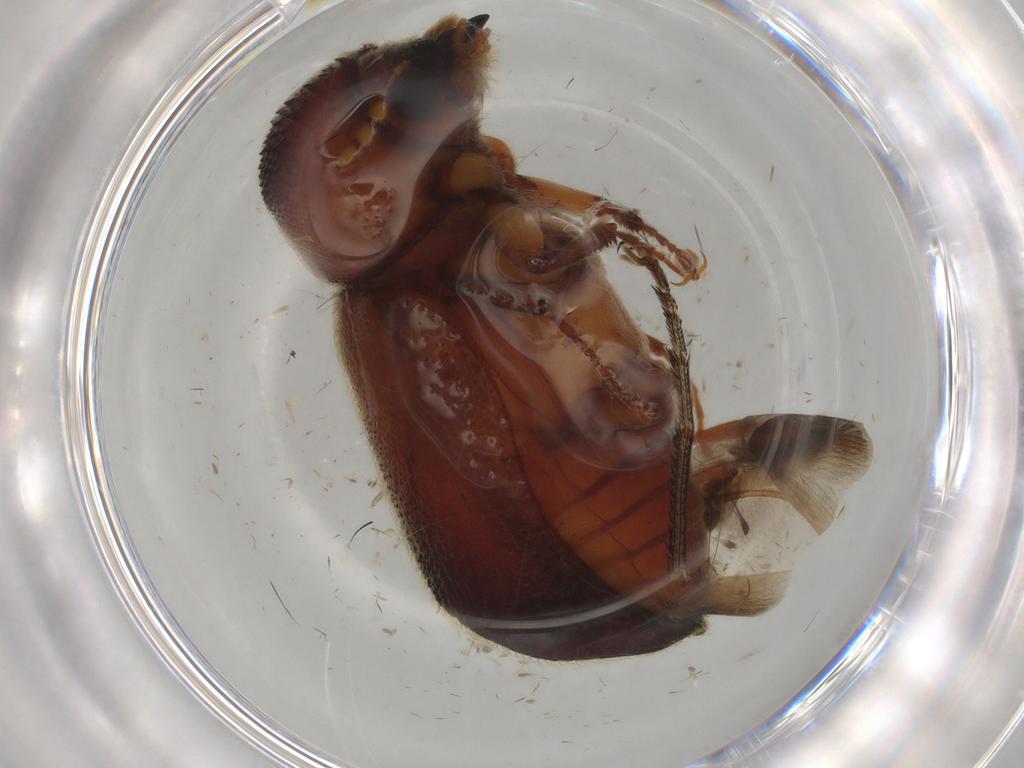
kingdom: Animalia
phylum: Arthropoda
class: Insecta
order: Coleoptera
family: Bostrichidae
